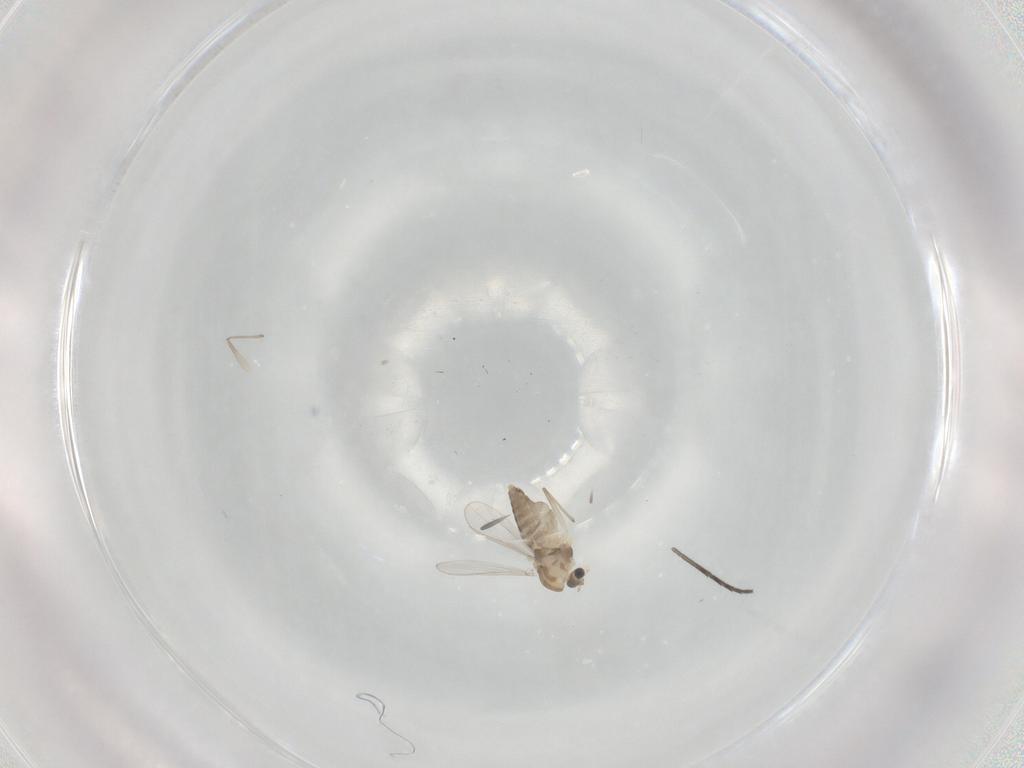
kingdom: Animalia
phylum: Arthropoda
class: Insecta
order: Diptera
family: Chironomidae
